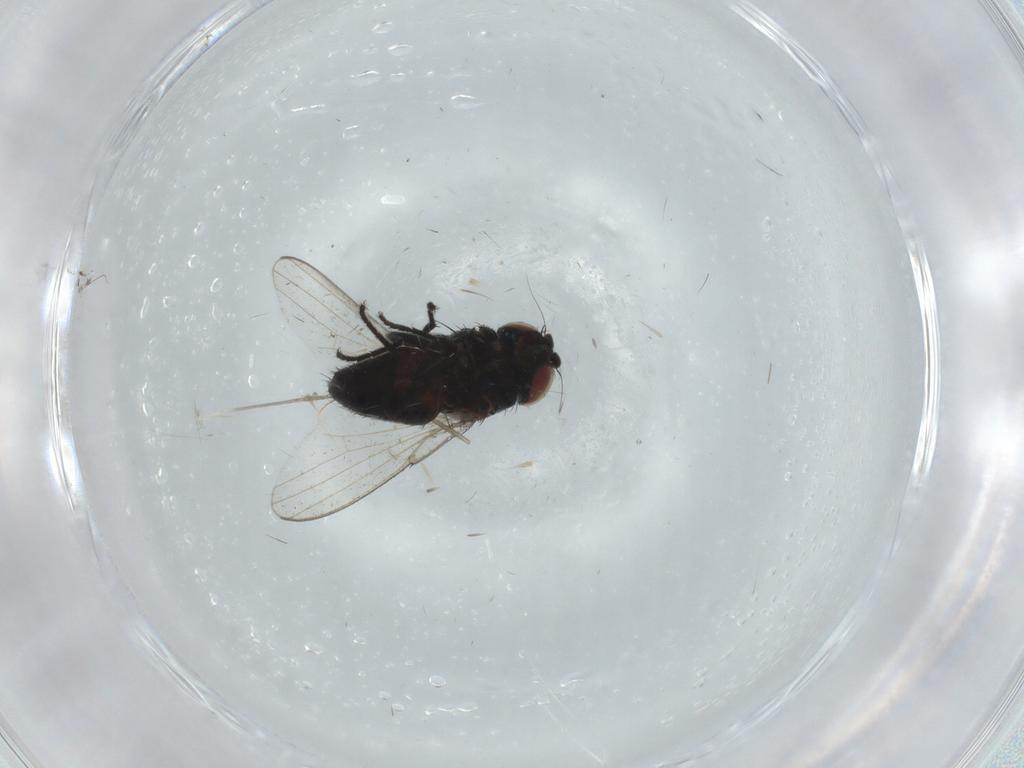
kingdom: Animalia
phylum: Arthropoda
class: Insecta
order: Diptera
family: Milichiidae
